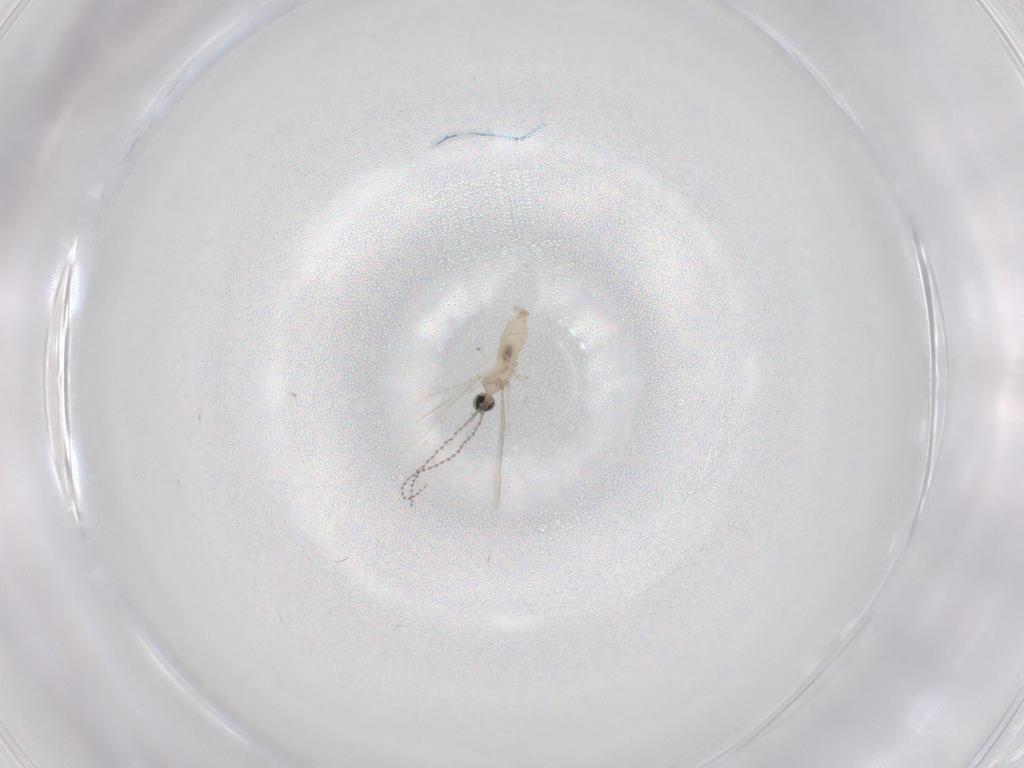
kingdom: Animalia
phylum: Arthropoda
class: Insecta
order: Diptera
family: Cecidomyiidae
